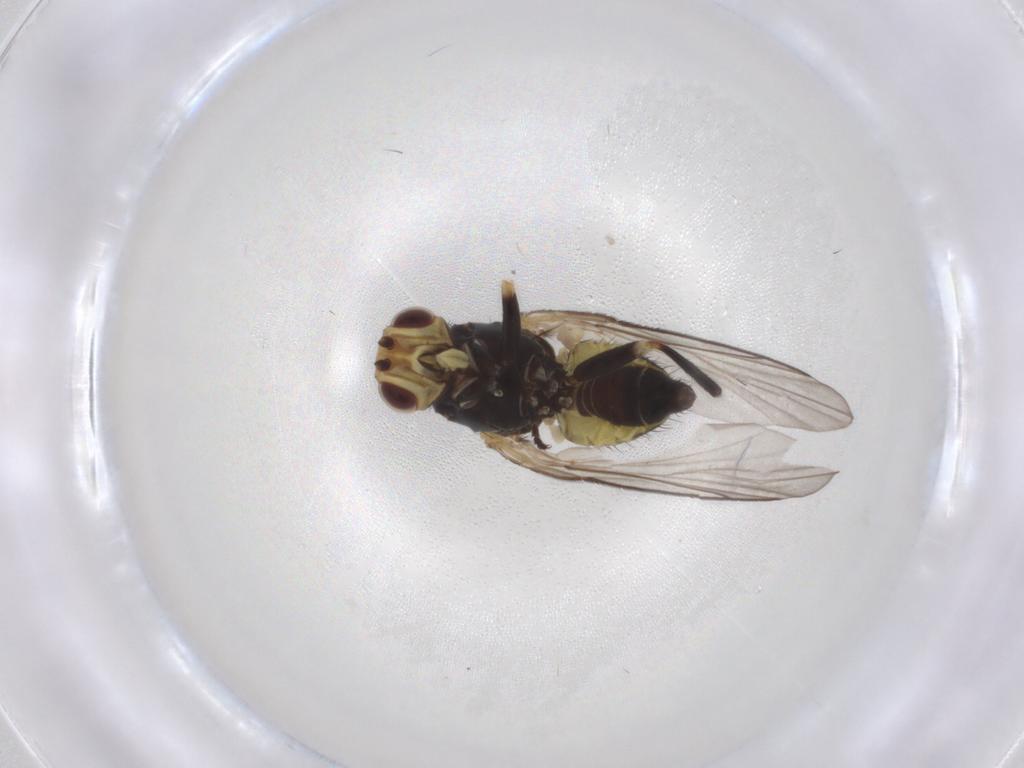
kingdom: Animalia
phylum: Arthropoda
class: Insecta
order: Diptera
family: Agromyzidae
